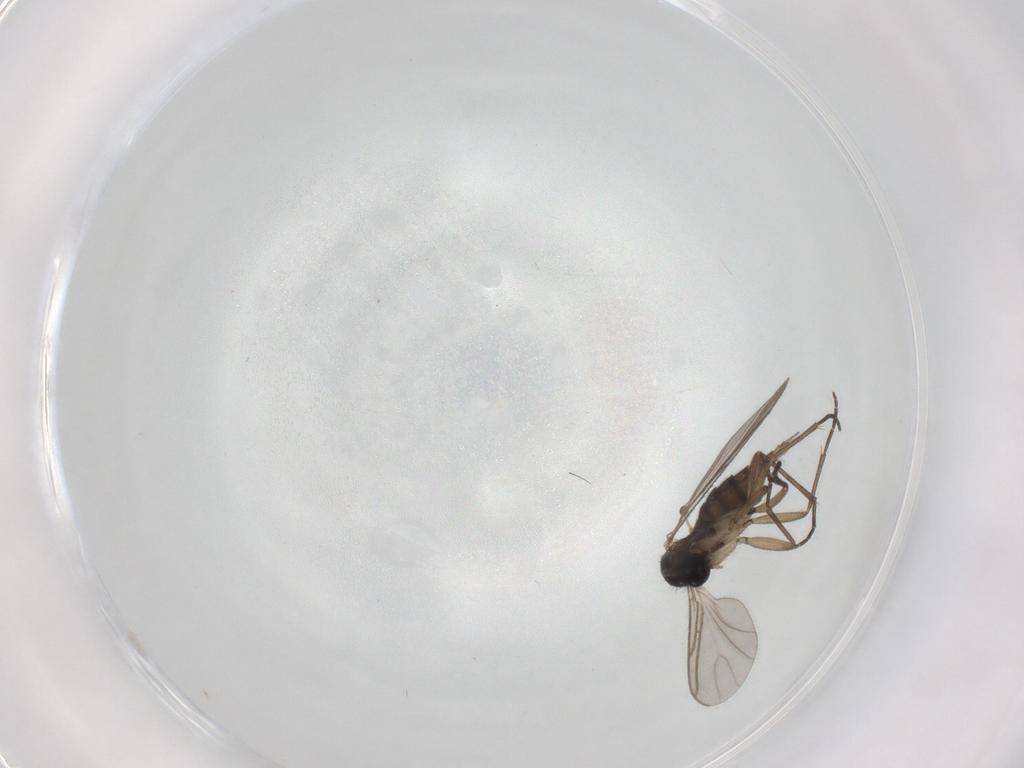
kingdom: Animalia
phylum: Arthropoda
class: Insecta
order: Diptera
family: Sciaridae
